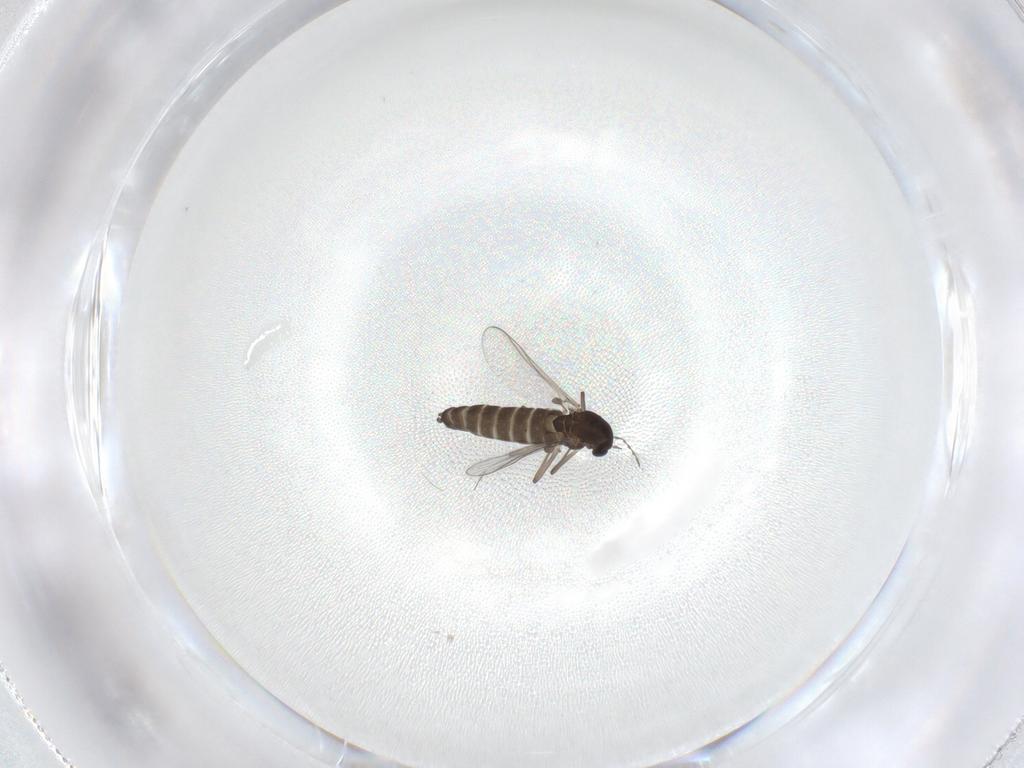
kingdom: Animalia
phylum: Arthropoda
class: Insecta
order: Diptera
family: Chironomidae
